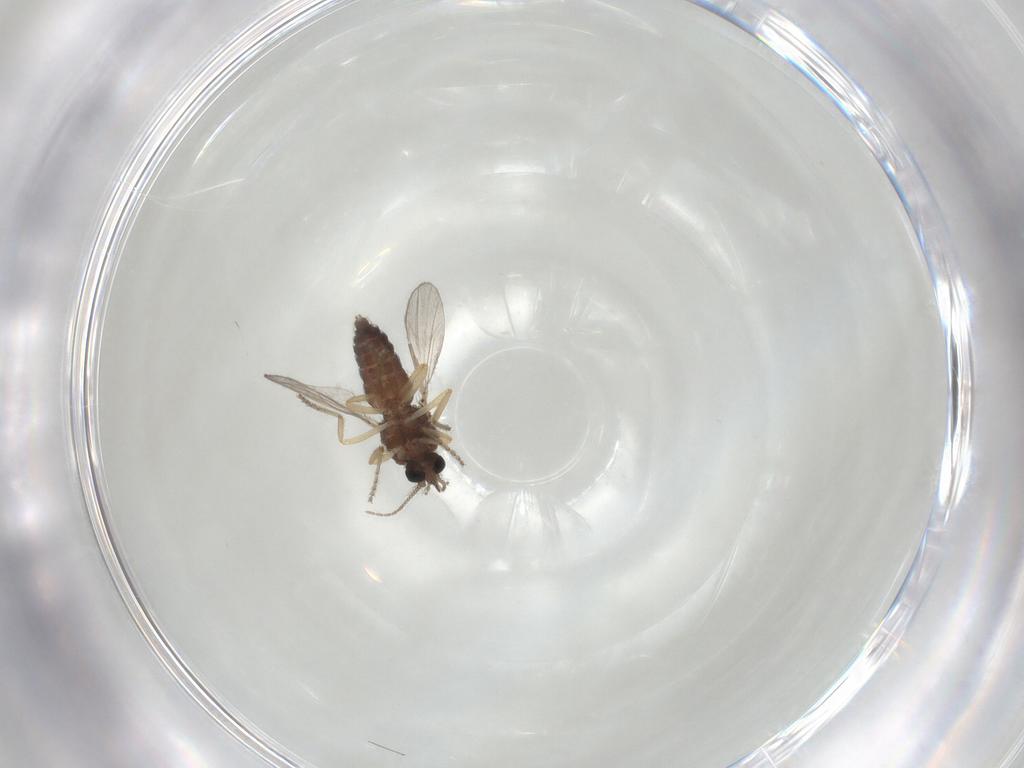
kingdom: Animalia
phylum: Arthropoda
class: Insecta
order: Diptera
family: Ceratopogonidae
